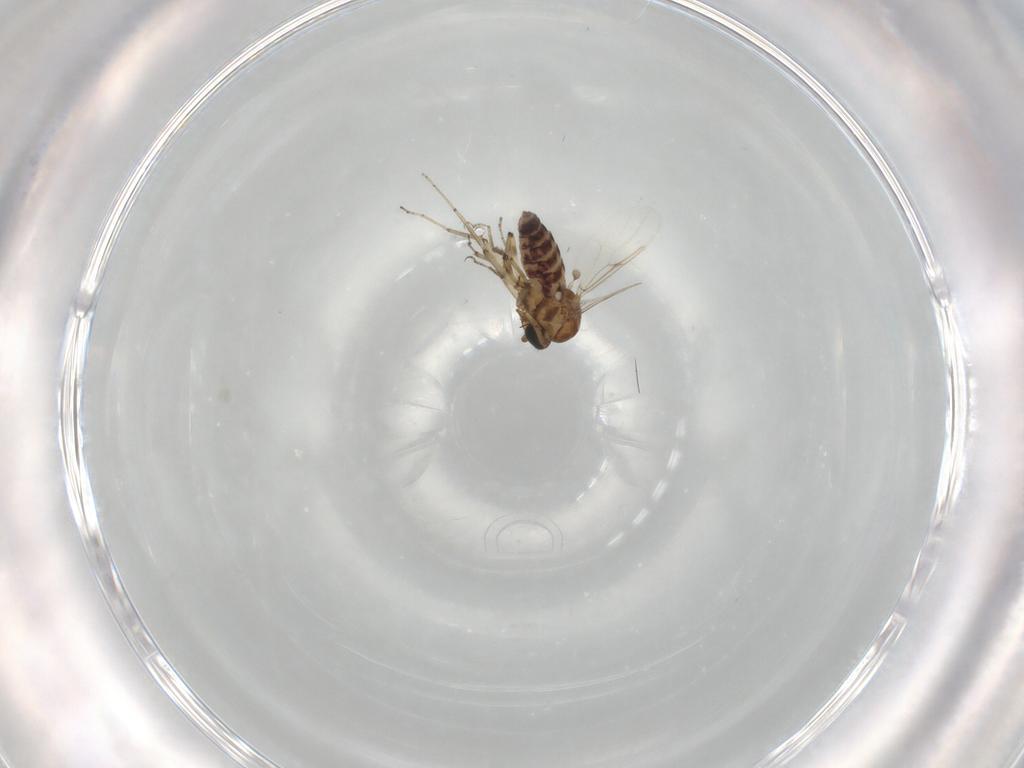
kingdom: Animalia
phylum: Arthropoda
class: Insecta
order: Diptera
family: Ceratopogonidae
